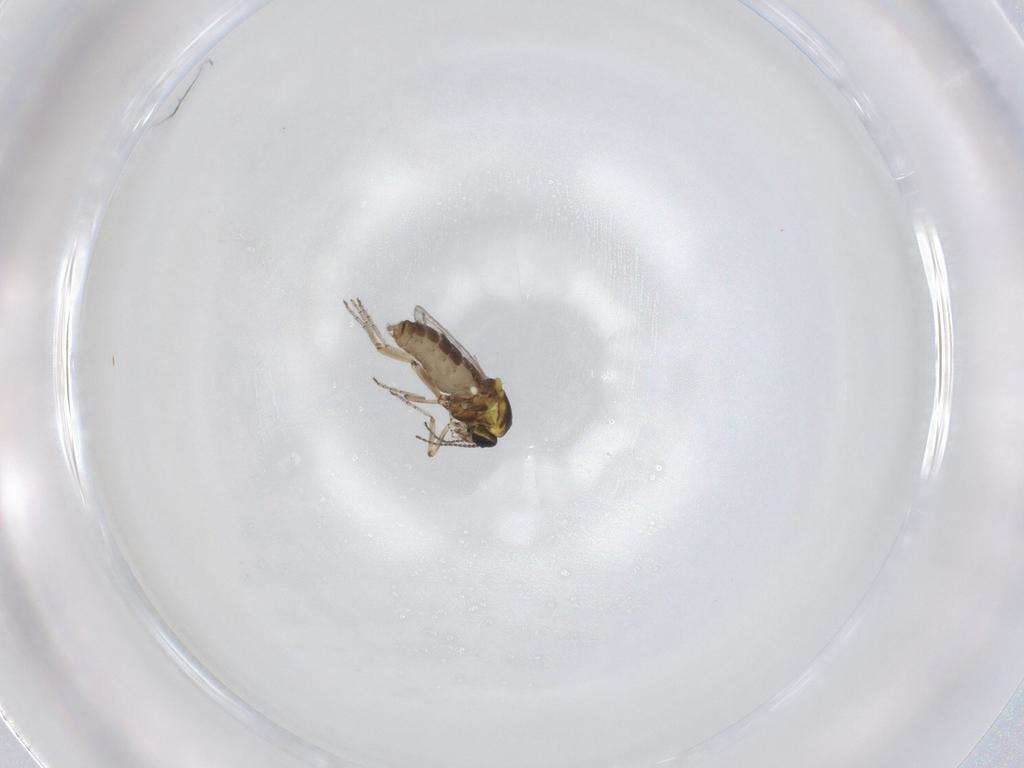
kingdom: Animalia
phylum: Arthropoda
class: Insecta
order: Diptera
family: Ceratopogonidae
